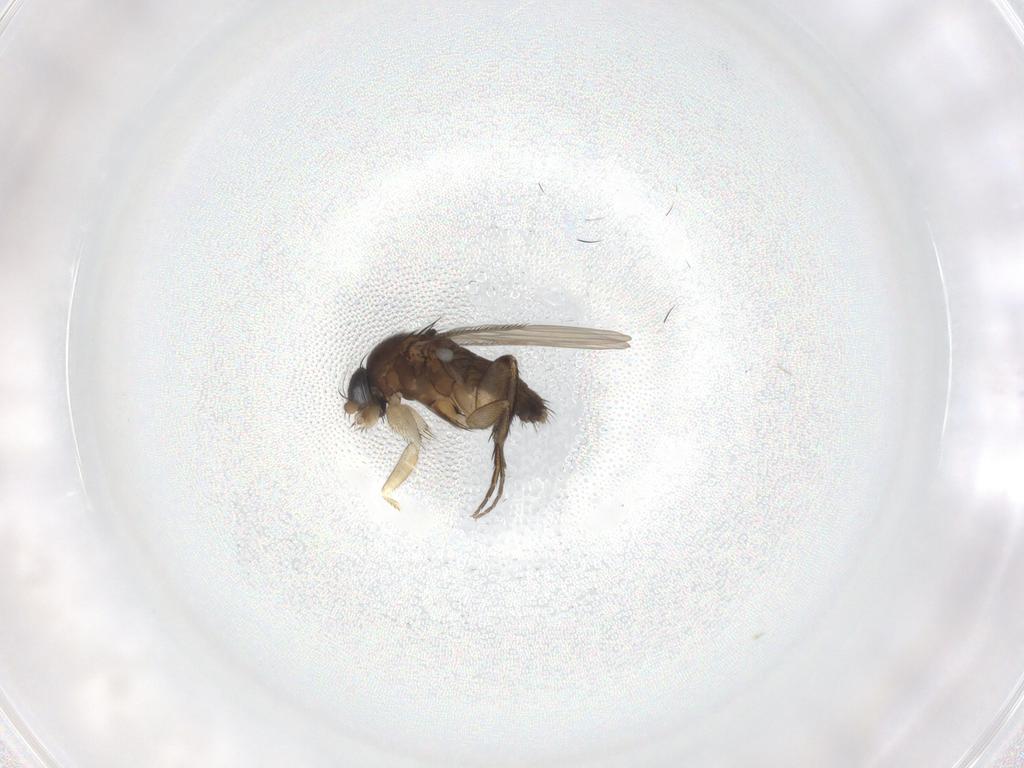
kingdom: Animalia
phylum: Arthropoda
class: Insecta
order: Diptera
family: Phoridae
